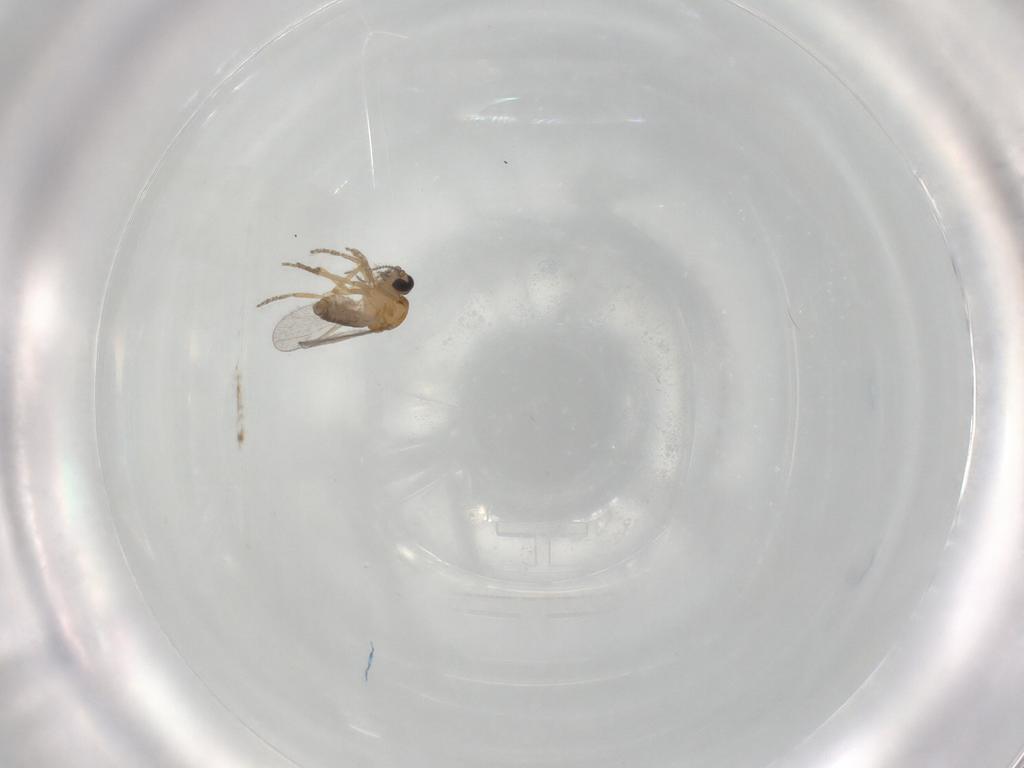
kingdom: Animalia
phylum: Arthropoda
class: Insecta
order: Diptera
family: Ceratopogonidae
